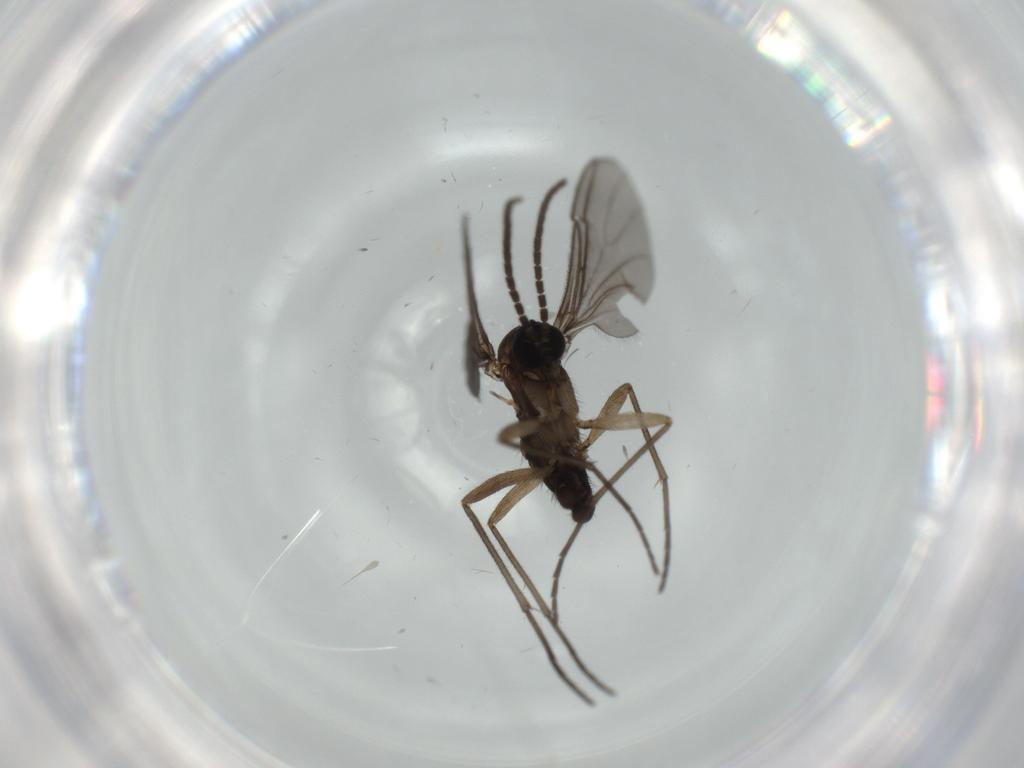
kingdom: Animalia
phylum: Arthropoda
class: Insecta
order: Diptera
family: Sciaridae
